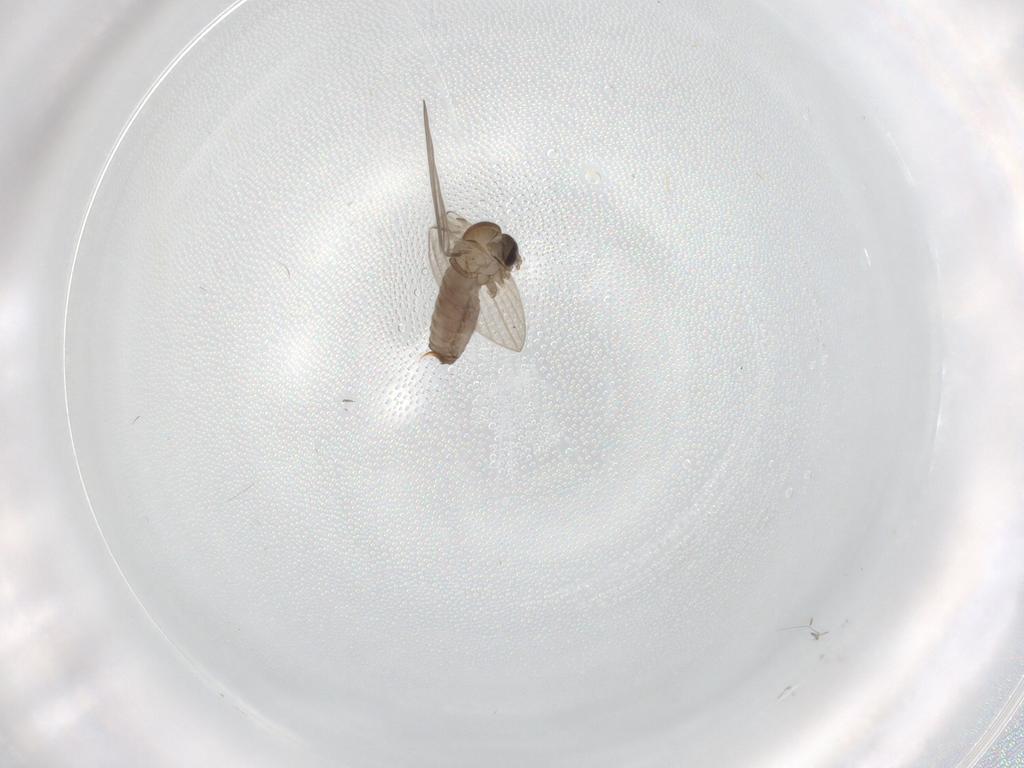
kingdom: Animalia
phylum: Arthropoda
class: Insecta
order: Diptera
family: Psychodidae
